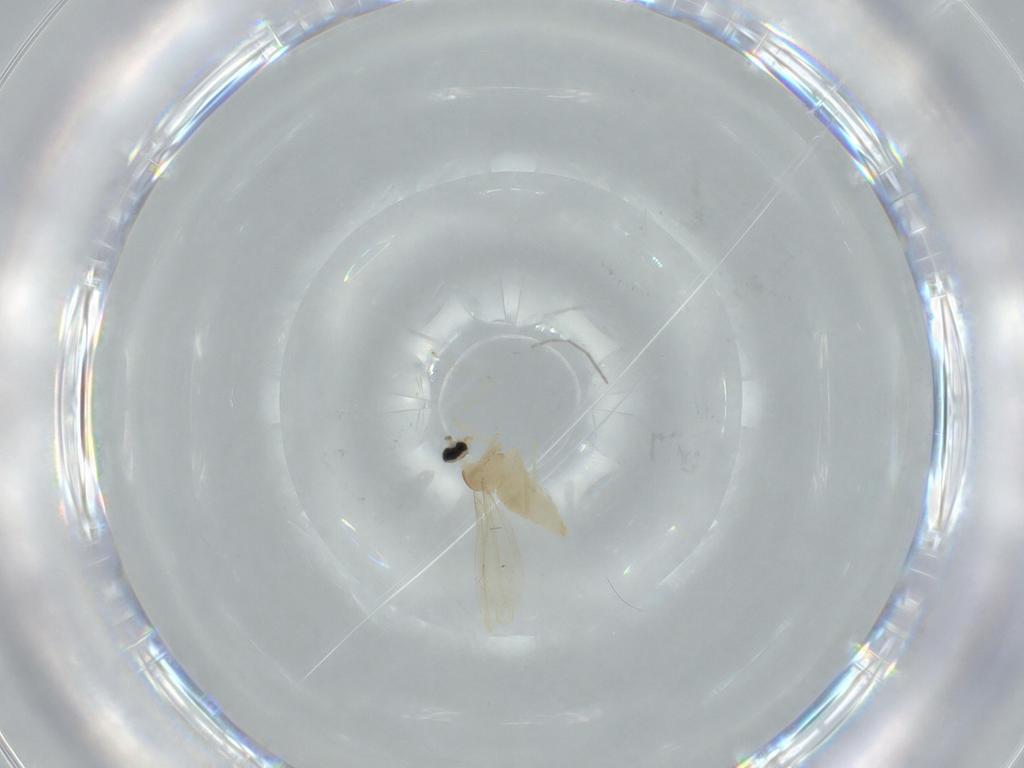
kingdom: Animalia
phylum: Arthropoda
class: Insecta
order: Diptera
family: Cecidomyiidae
